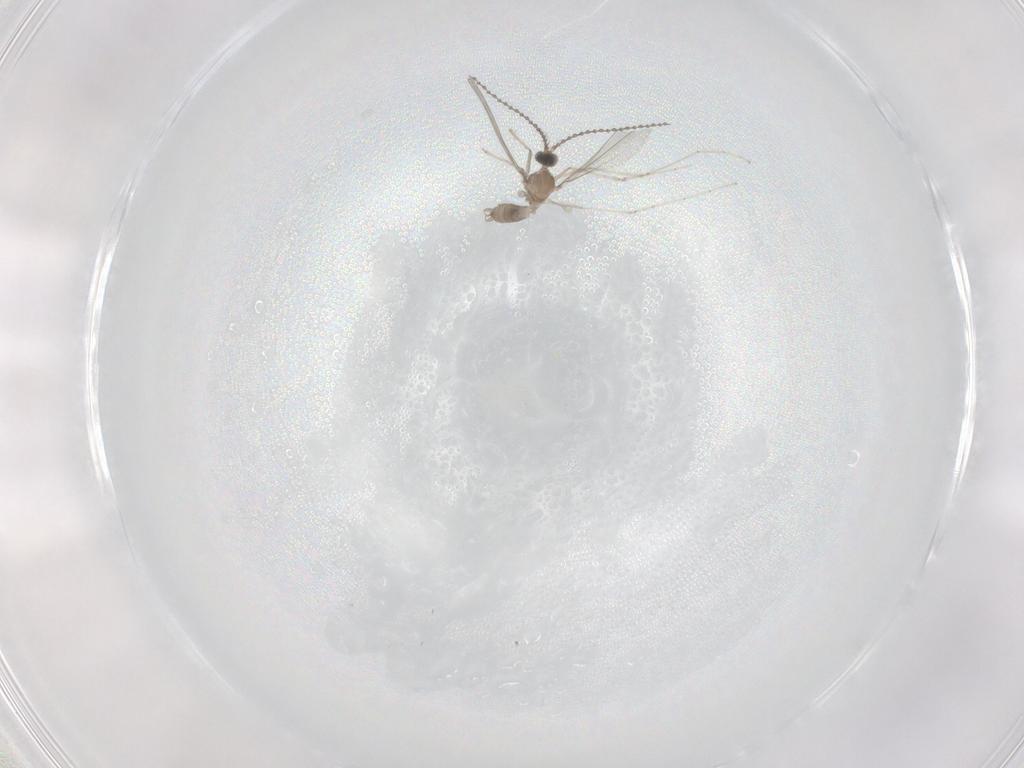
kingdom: Animalia
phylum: Arthropoda
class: Insecta
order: Diptera
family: Cecidomyiidae
